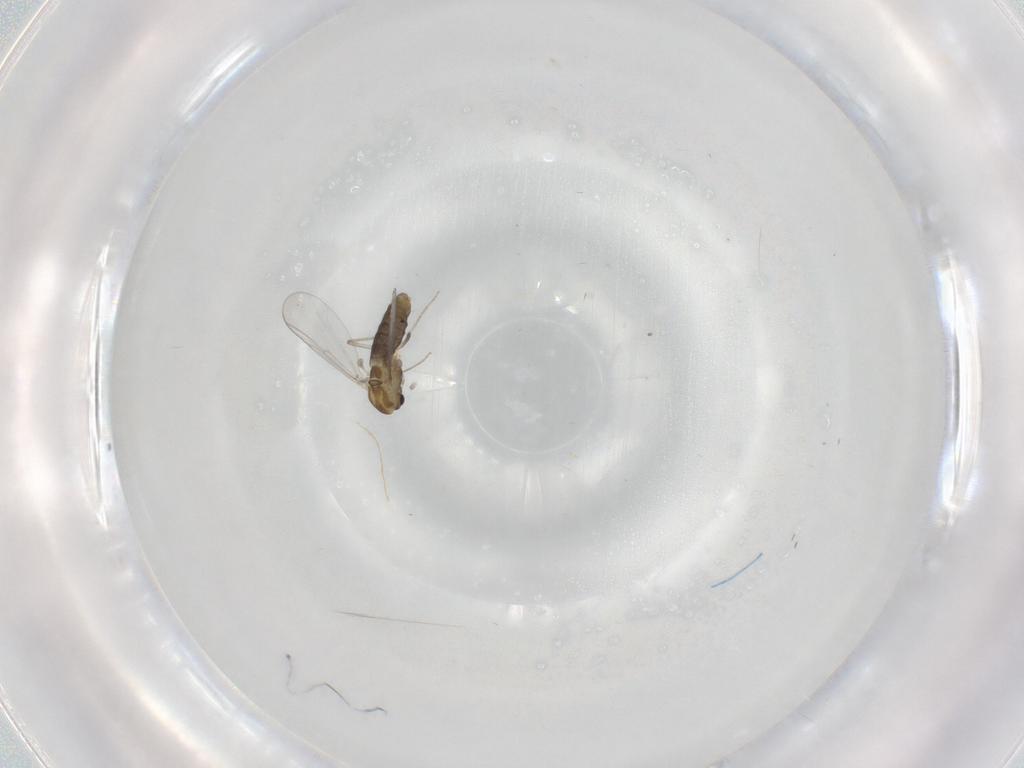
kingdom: Animalia
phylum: Arthropoda
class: Insecta
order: Diptera
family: Chironomidae
